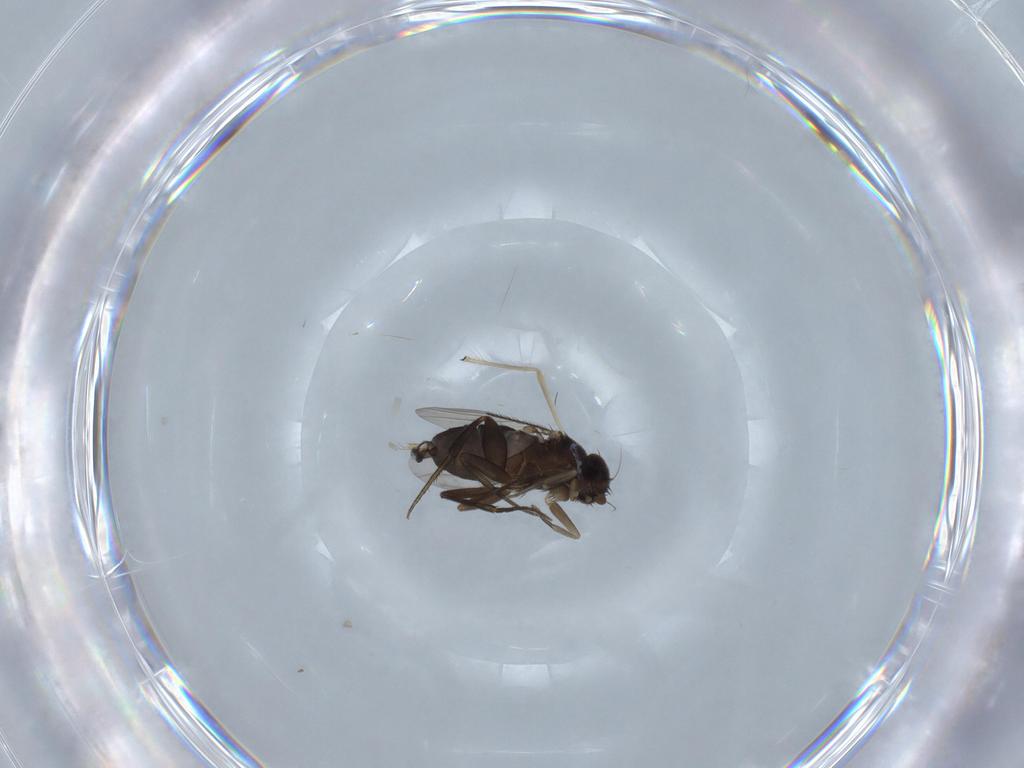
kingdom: Animalia
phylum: Arthropoda
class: Insecta
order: Diptera
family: Phoridae
